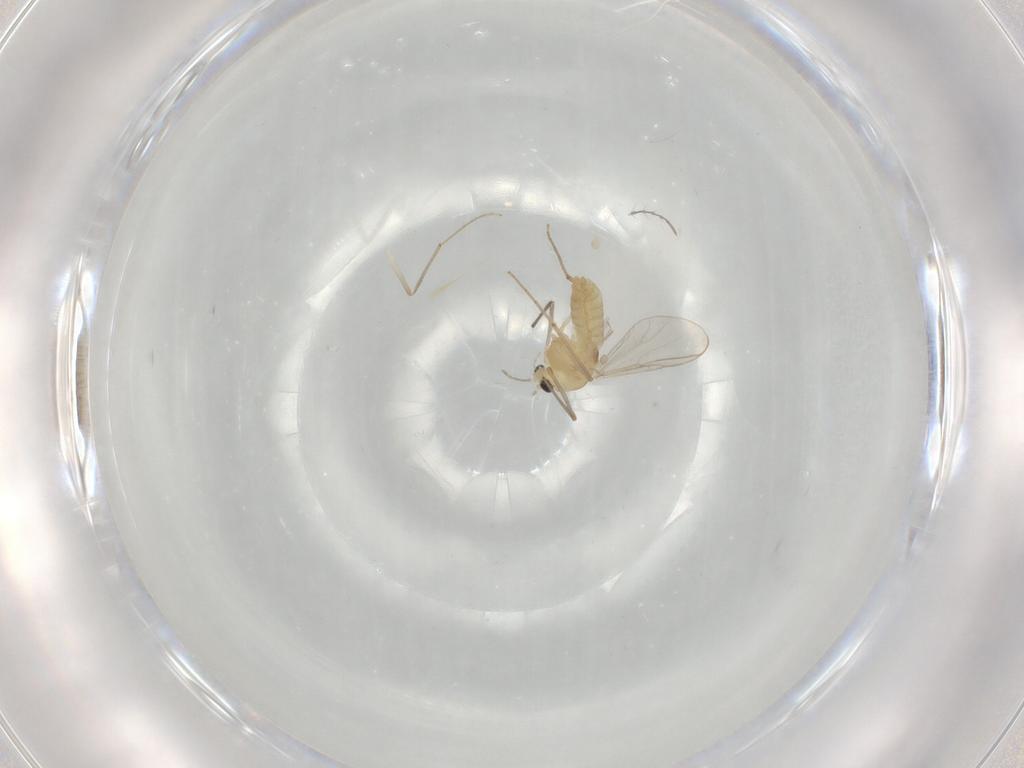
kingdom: Animalia
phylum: Arthropoda
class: Insecta
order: Diptera
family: Chironomidae
